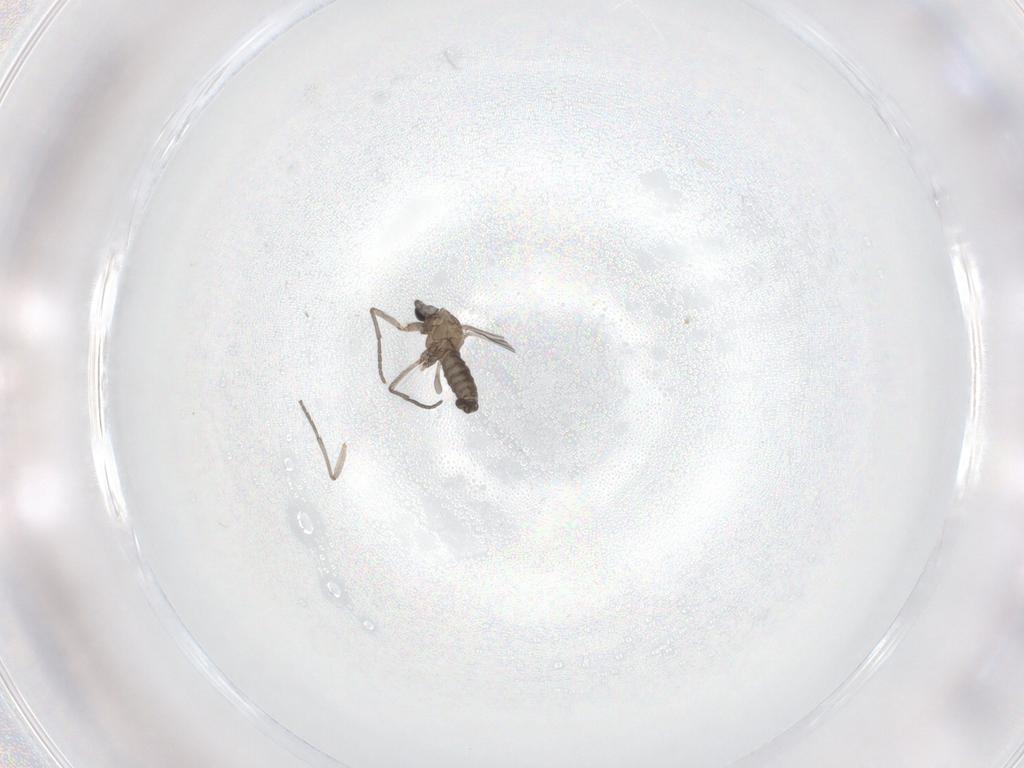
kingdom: Animalia
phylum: Arthropoda
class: Insecta
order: Diptera
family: Sciaridae
